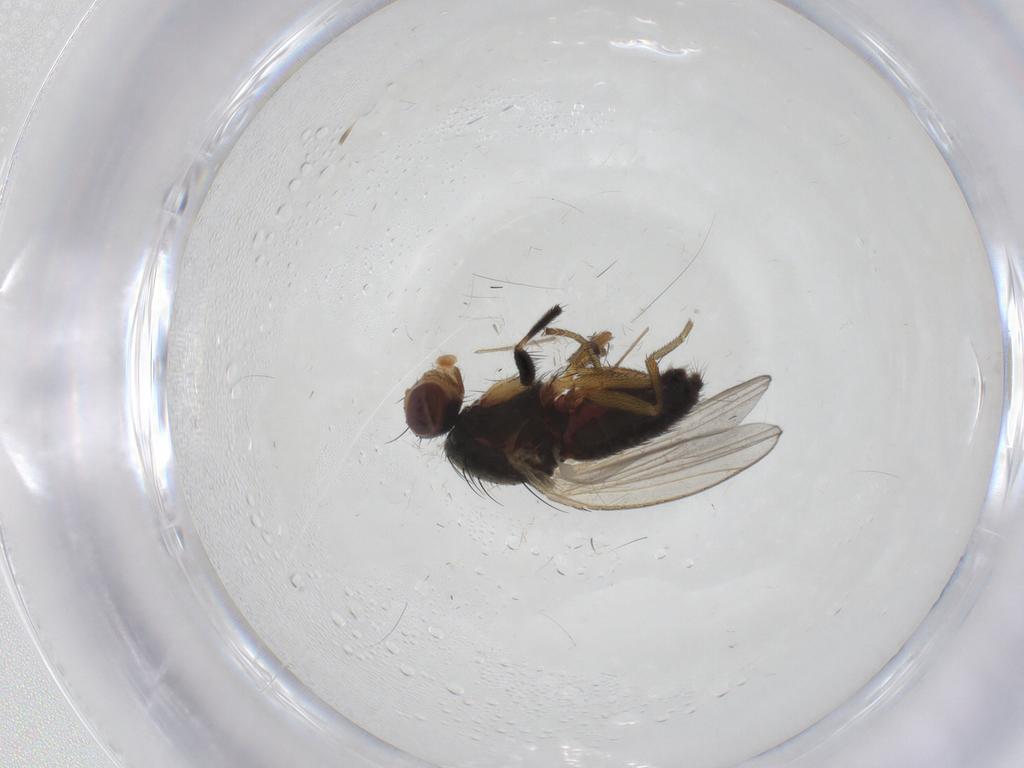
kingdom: Animalia
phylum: Arthropoda
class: Insecta
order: Diptera
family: Heleomyzidae
